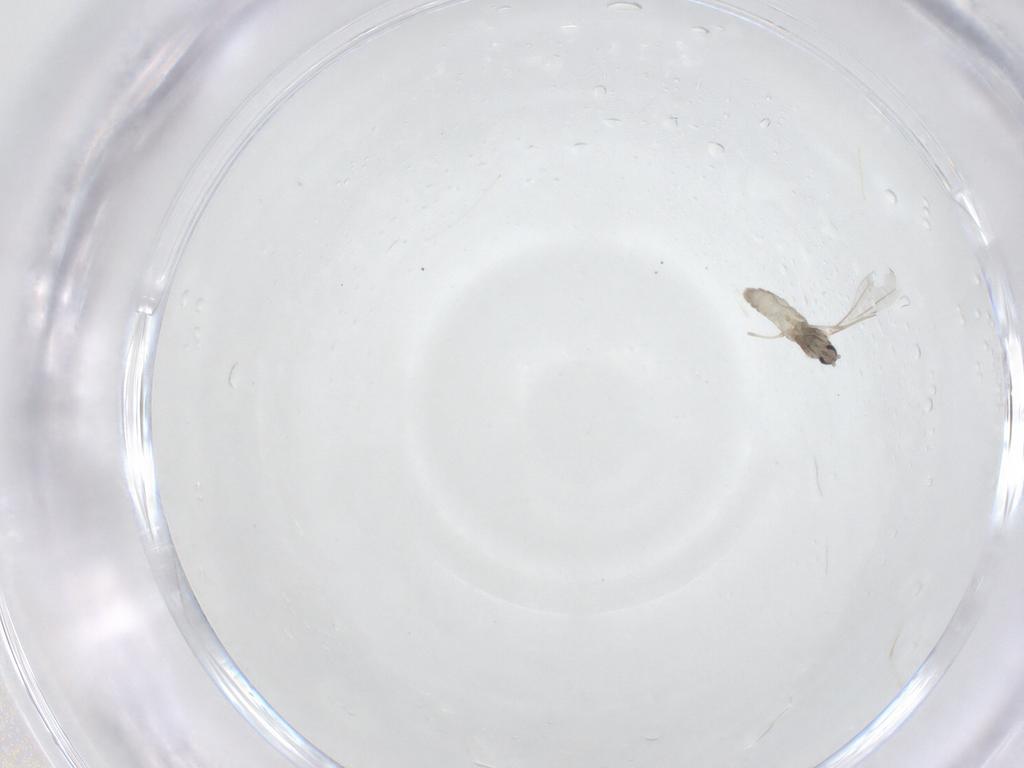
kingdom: Animalia
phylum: Arthropoda
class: Insecta
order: Diptera
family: Cecidomyiidae
